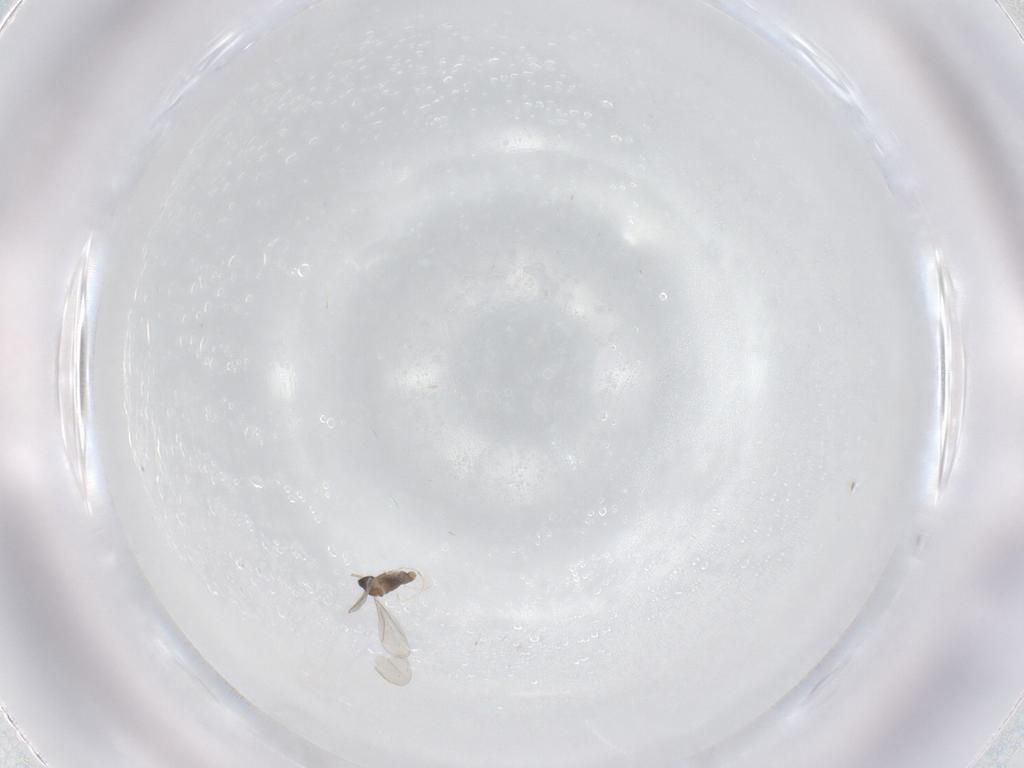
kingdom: Animalia
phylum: Arthropoda
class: Insecta
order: Diptera
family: Cecidomyiidae
